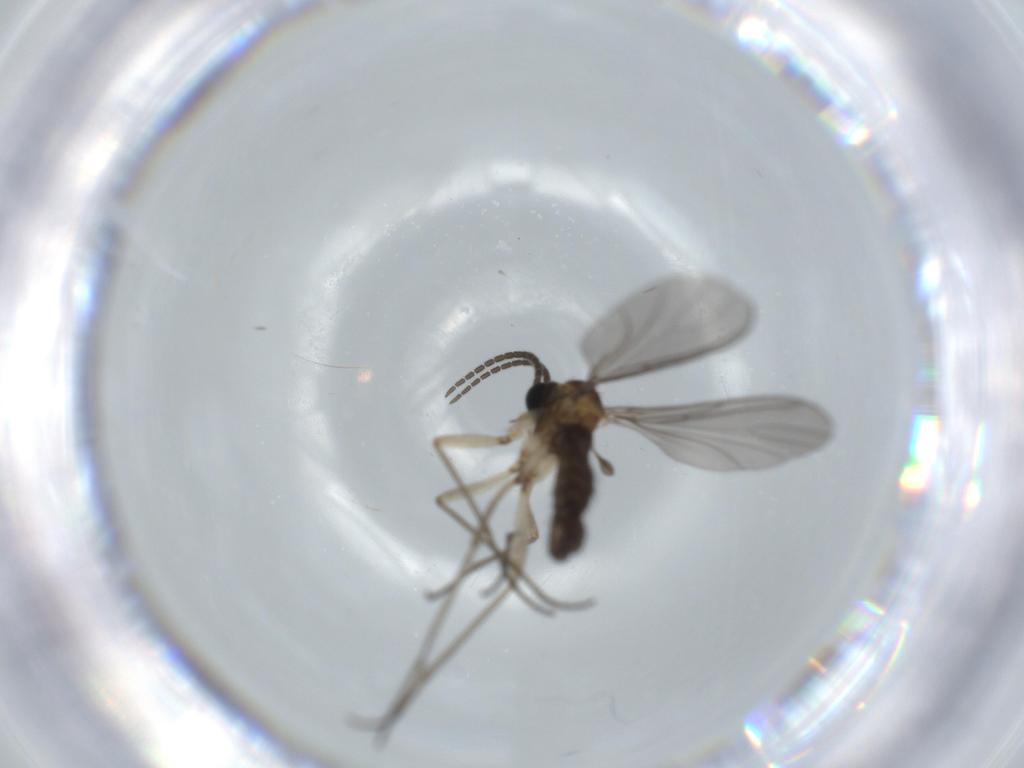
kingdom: Animalia
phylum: Arthropoda
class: Insecta
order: Diptera
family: Sciaridae
